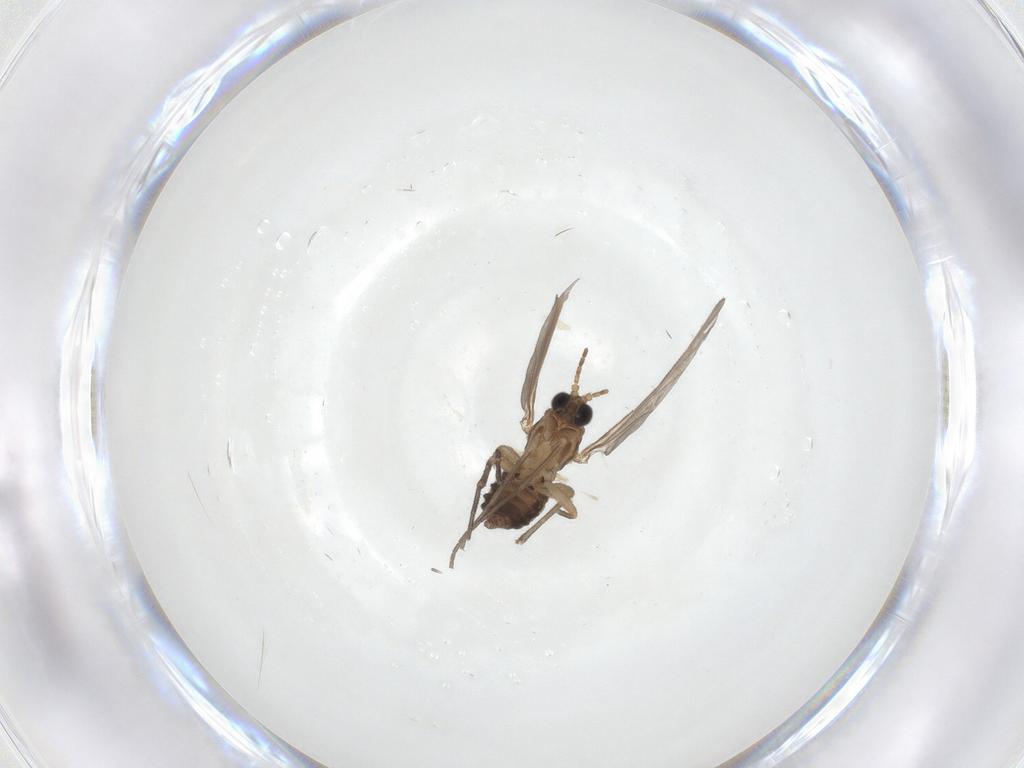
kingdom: Animalia
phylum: Arthropoda
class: Insecta
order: Diptera
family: Sciaridae
